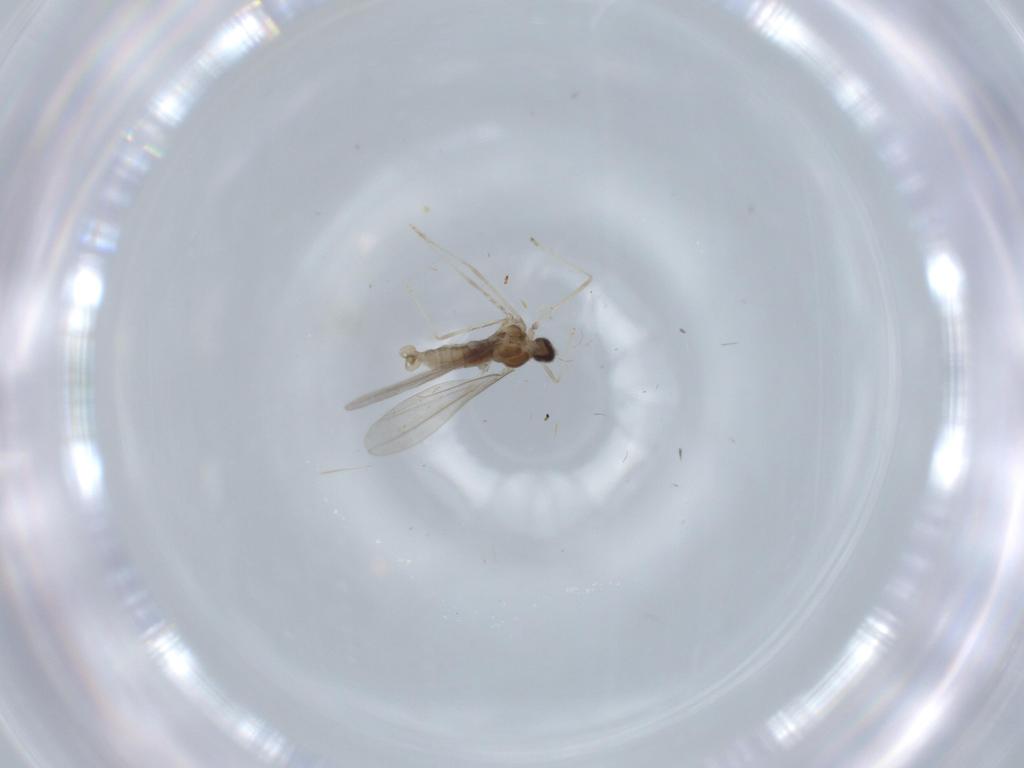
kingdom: Animalia
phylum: Arthropoda
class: Insecta
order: Diptera
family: Cecidomyiidae
